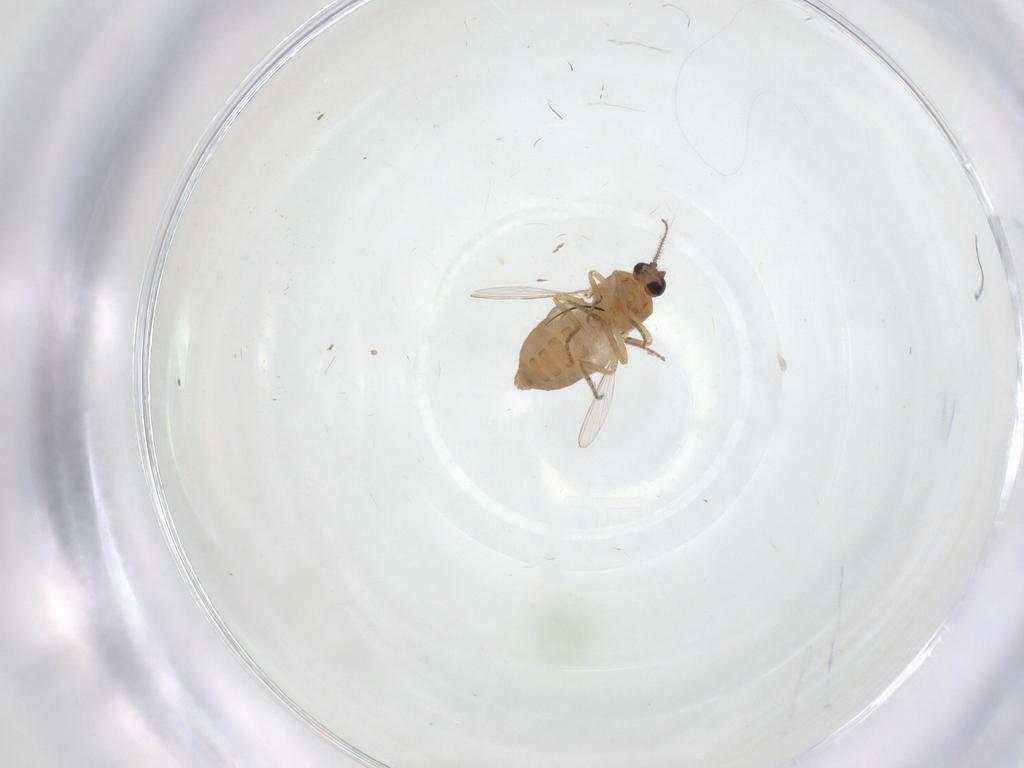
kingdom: Animalia
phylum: Arthropoda
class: Insecta
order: Diptera
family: Ceratopogonidae
